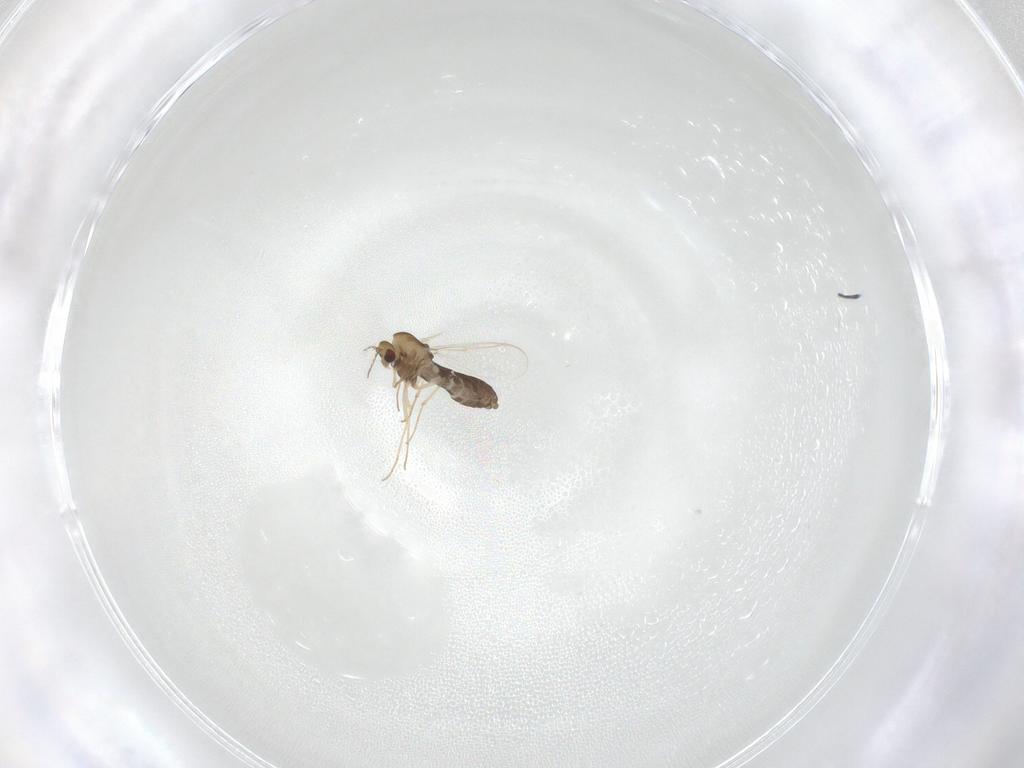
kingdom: Animalia
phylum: Arthropoda
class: Insecta
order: Diptera
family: Chironomidae
